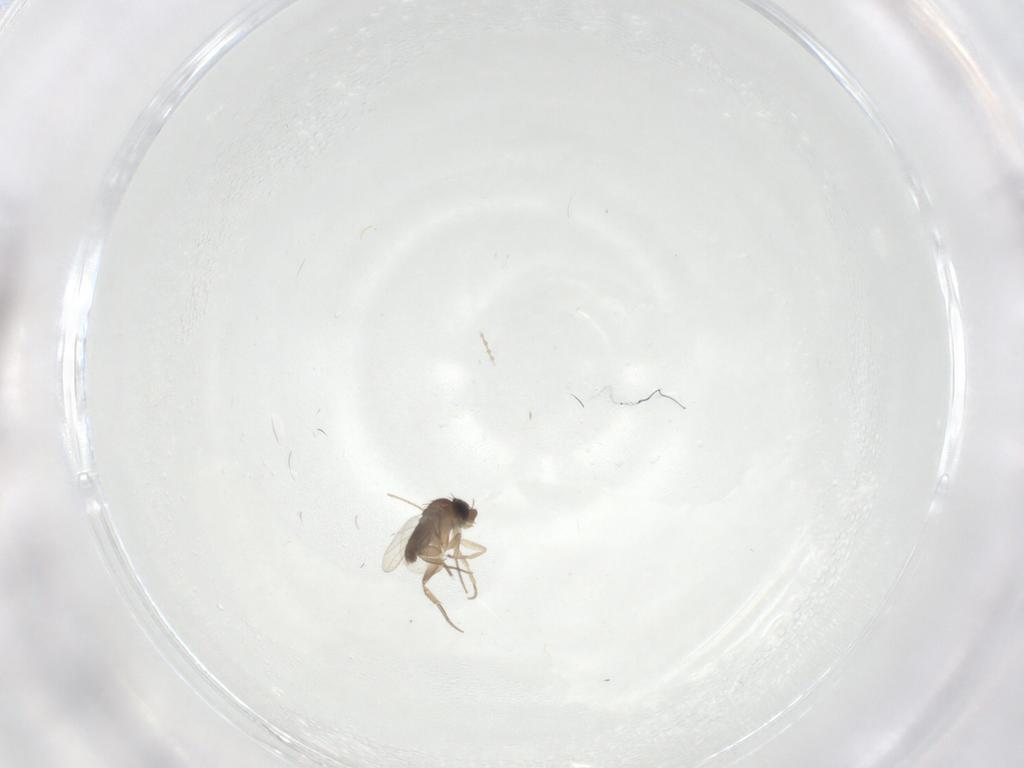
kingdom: Animalia
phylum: Arthropoda
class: Insecta
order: Diptera
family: Cecidomyiidae
